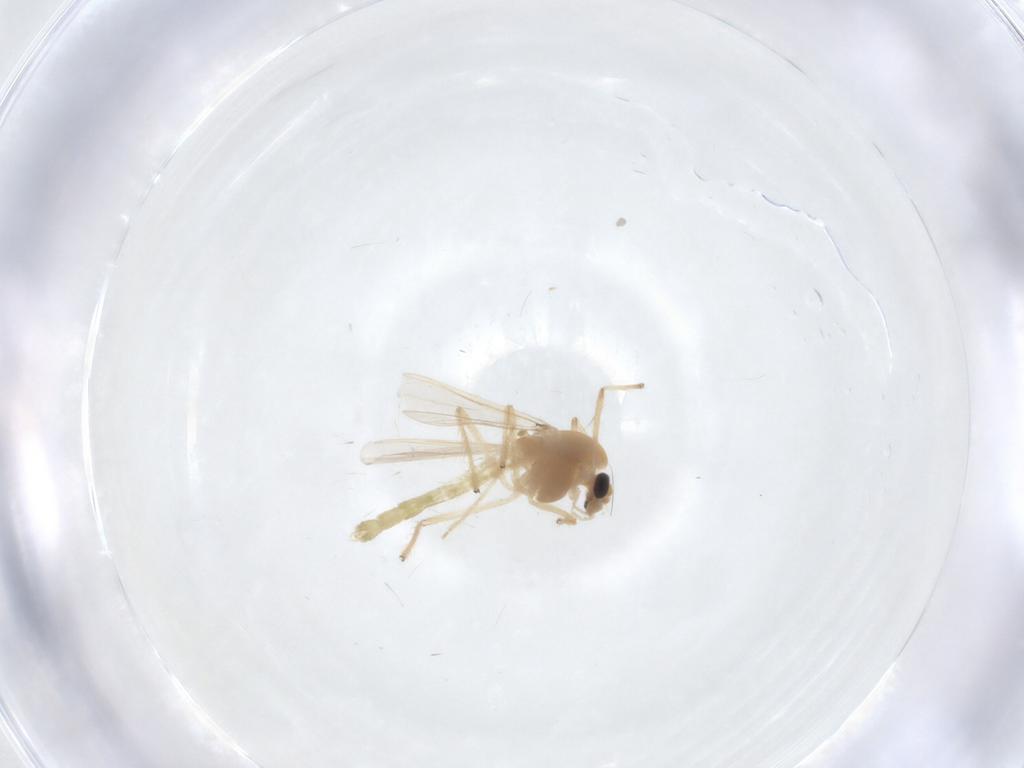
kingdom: Animalia
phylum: Arthropoda
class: Insecta
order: Diptera
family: Chironomidae
